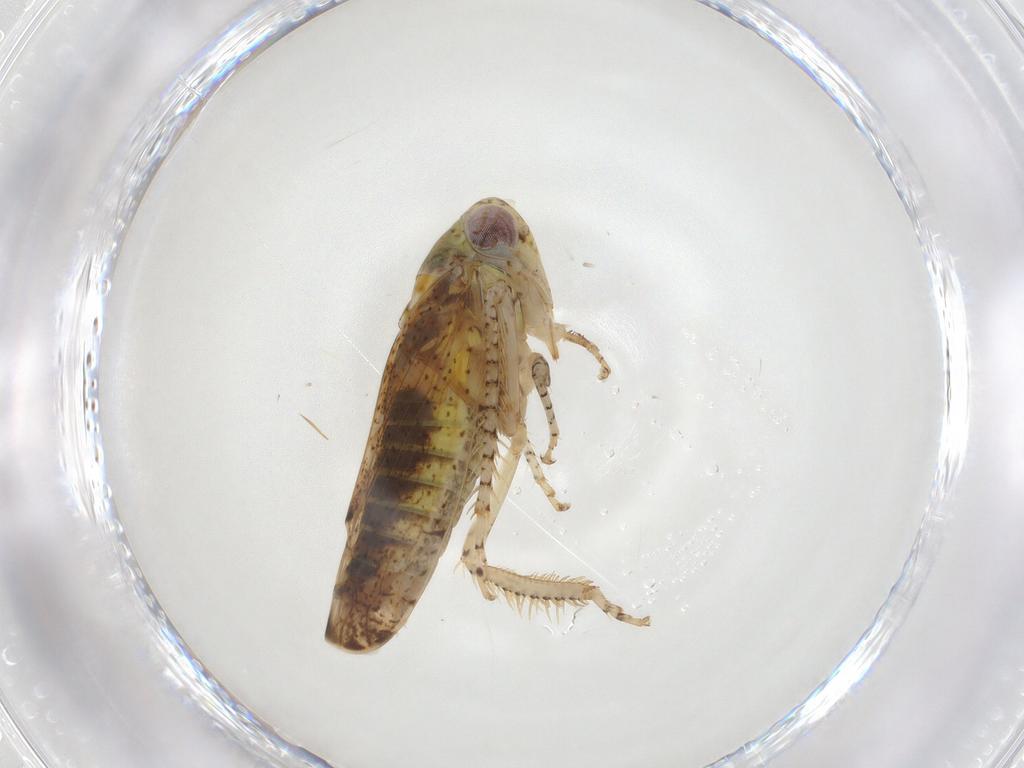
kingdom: Animalia
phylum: Arthropoda
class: Insecta
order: Hemiptera
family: Cicadellidae
